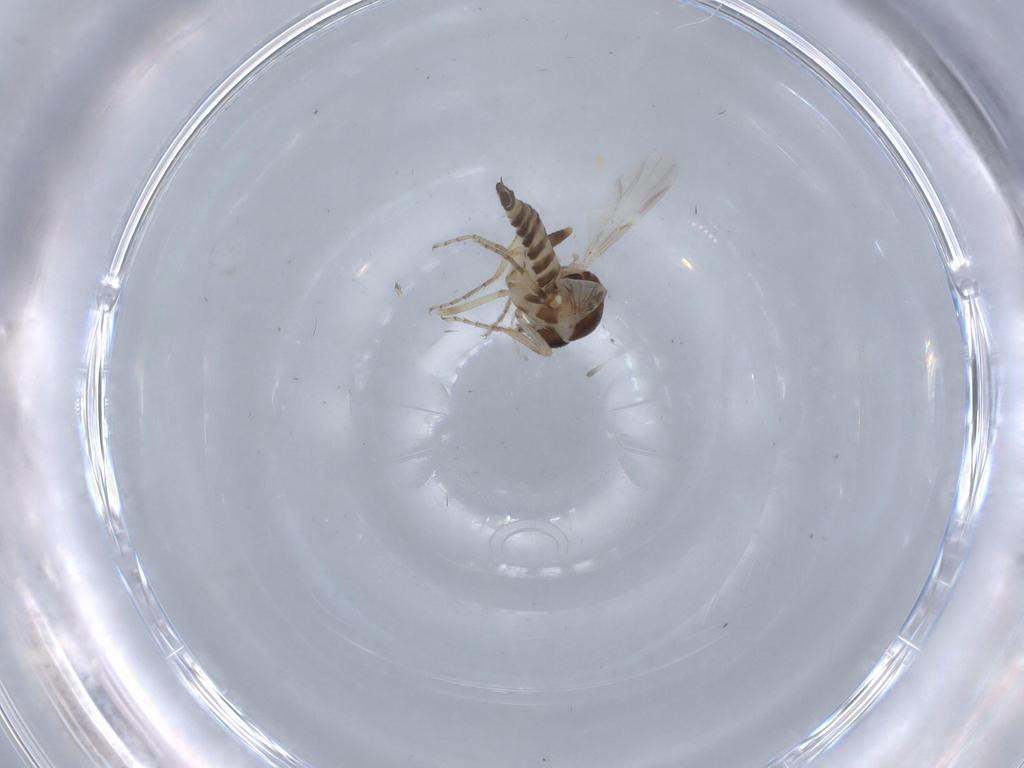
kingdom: Animalia
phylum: Arthropoda
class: Insecta
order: Diptera
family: Ceratopogonidae
